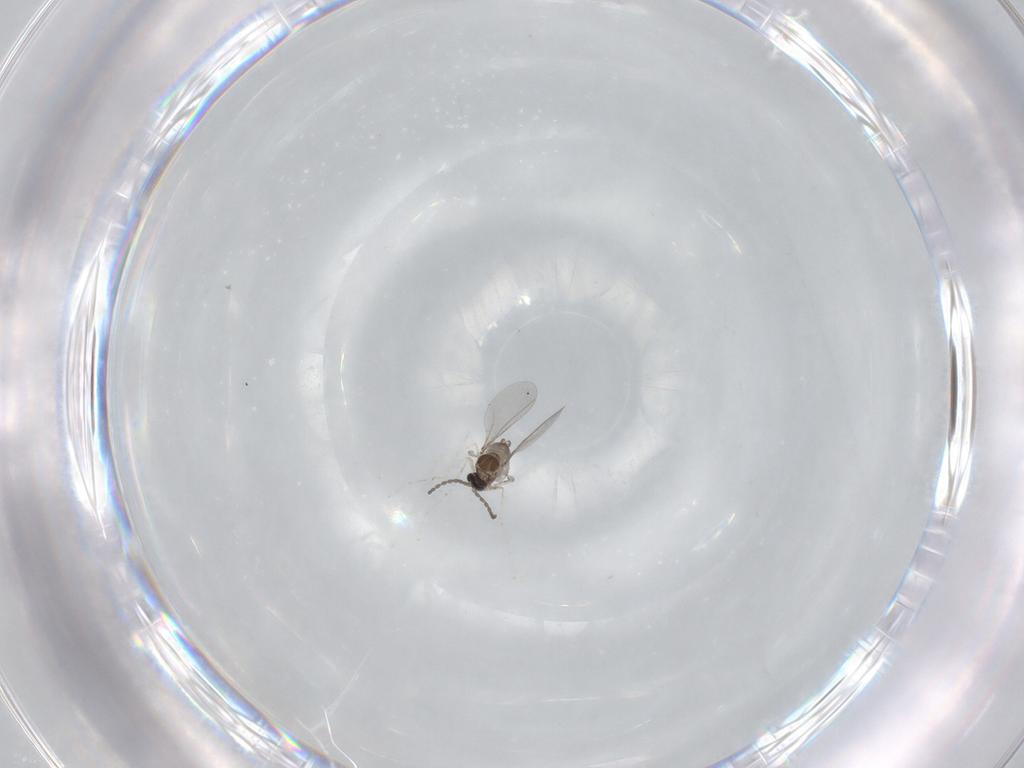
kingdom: Animalia
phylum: Arthropoda
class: Insecta
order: Diptera
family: Cecidomyiidae
